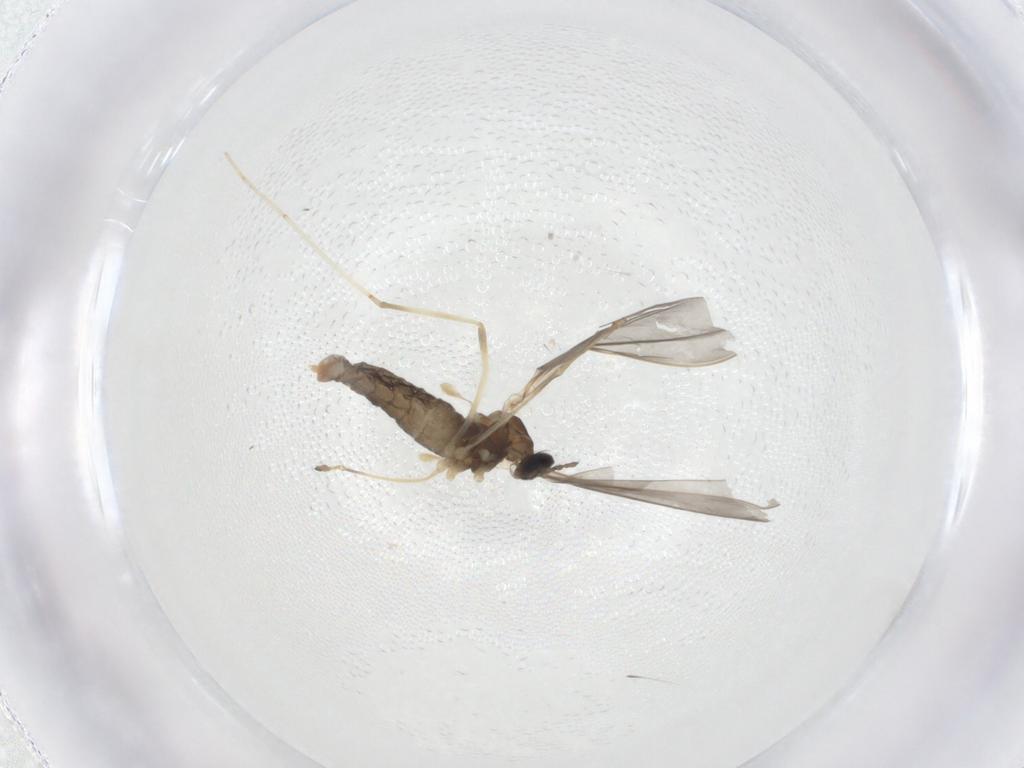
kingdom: Animalia
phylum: Arthropoda
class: Insecta
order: Diptera
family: Cecidomyiidae
